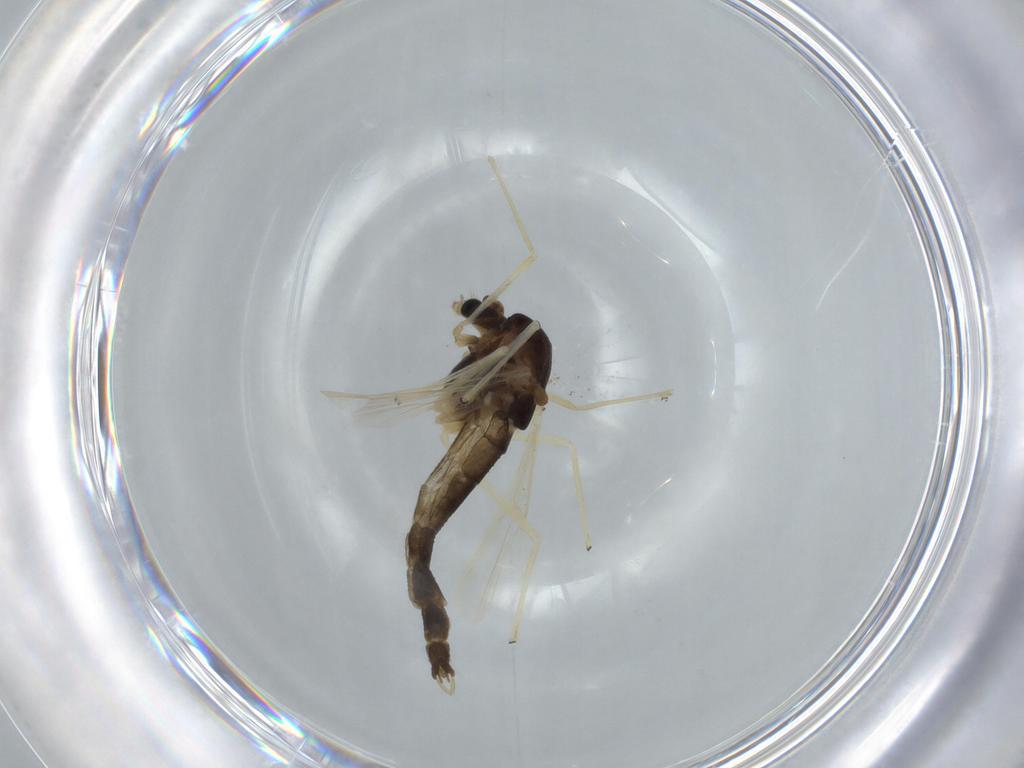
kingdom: Animalia
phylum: Arthropoda
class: Insecta
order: Diptera
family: Chironomidae
